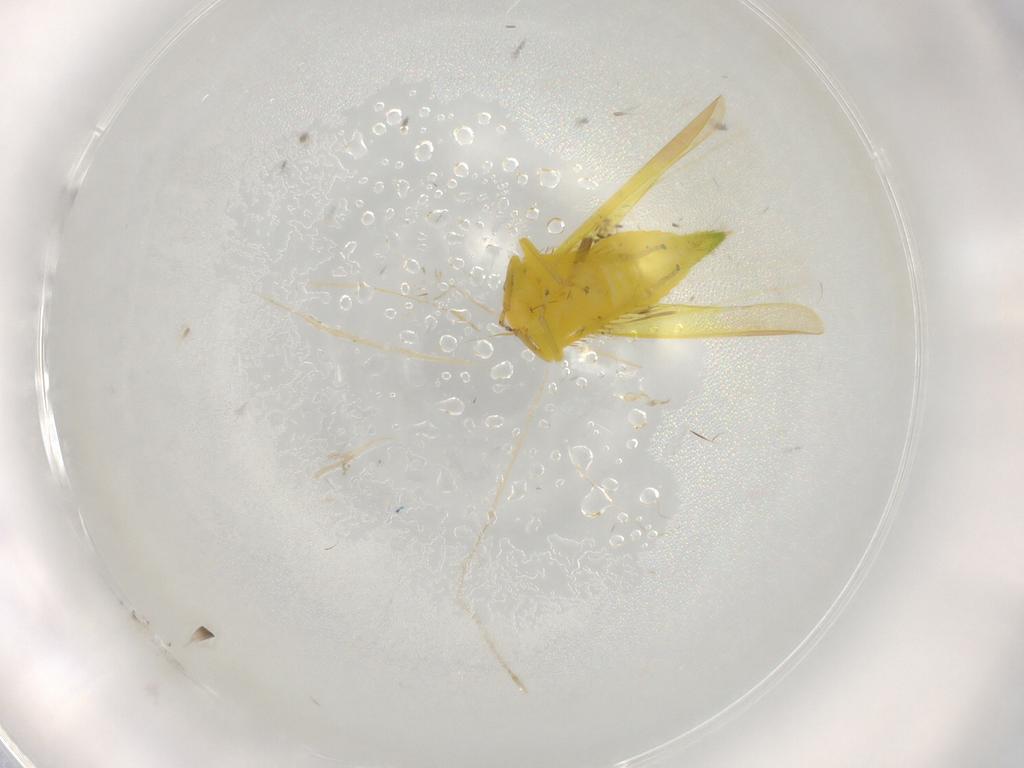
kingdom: Animalia
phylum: Arthropoda
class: Insecta
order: Hemiptera
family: Cicadellidae
